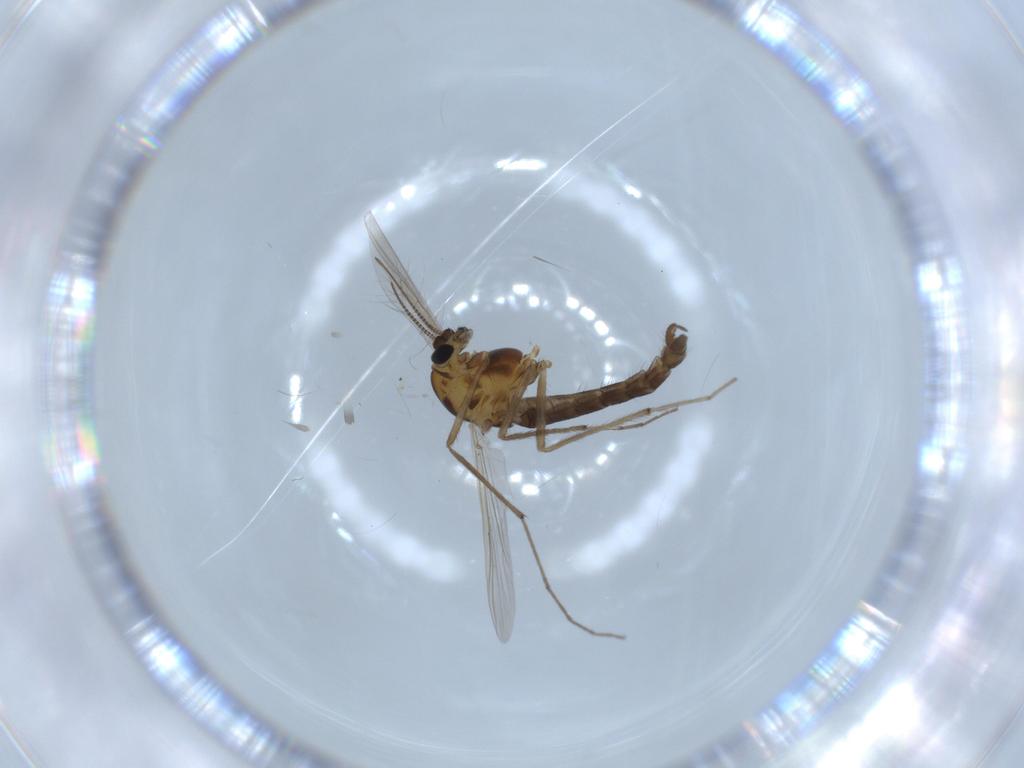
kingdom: Animalia
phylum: Arthropoda
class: Insecta
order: Diptera
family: Chironomidae
